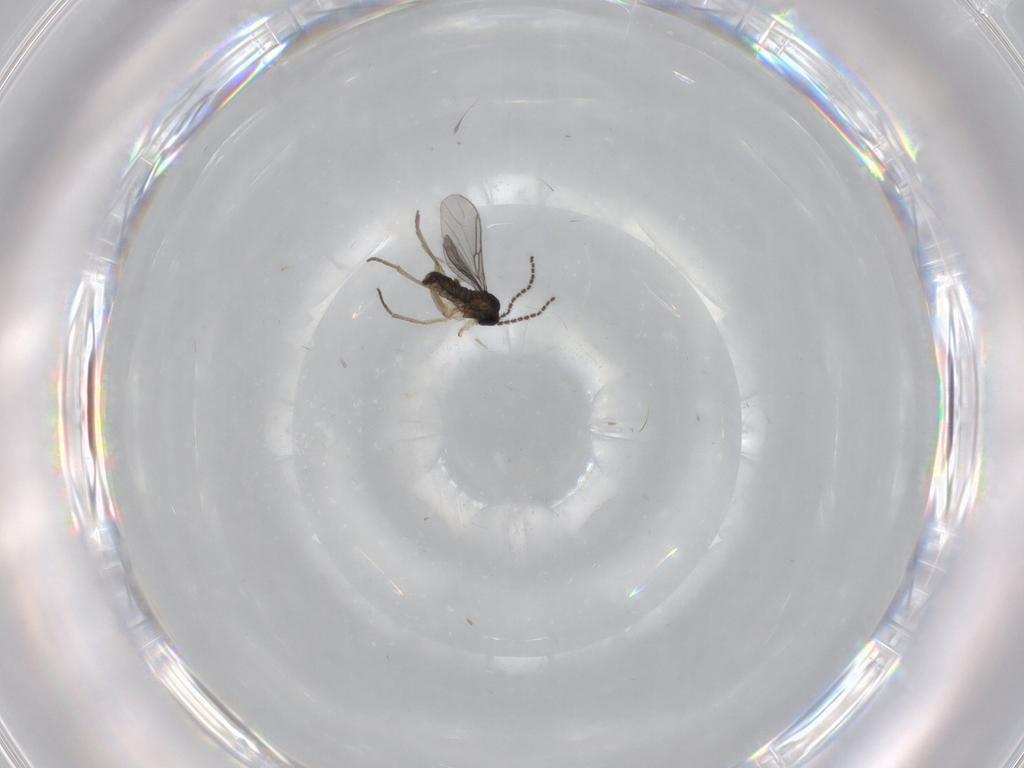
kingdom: Animalia
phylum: Arthropoda
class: Insecta
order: Diptera
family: Sciaridae
